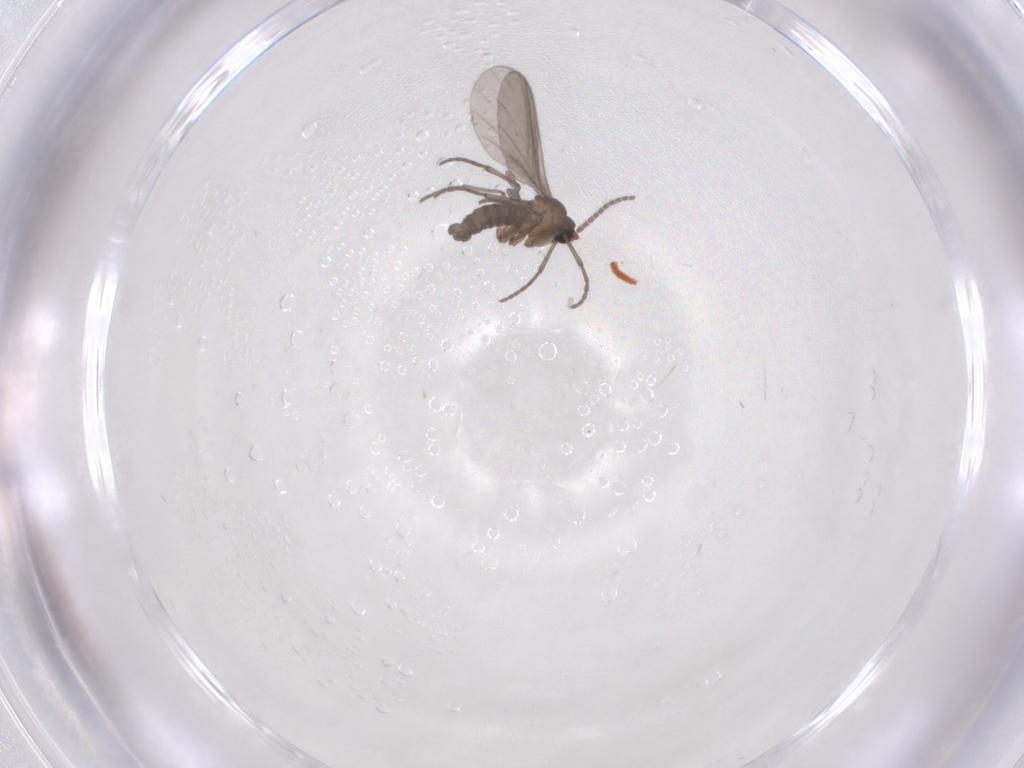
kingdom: Animalia
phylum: Arthropoda
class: Insecta
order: Diptera
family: Sciaridae
